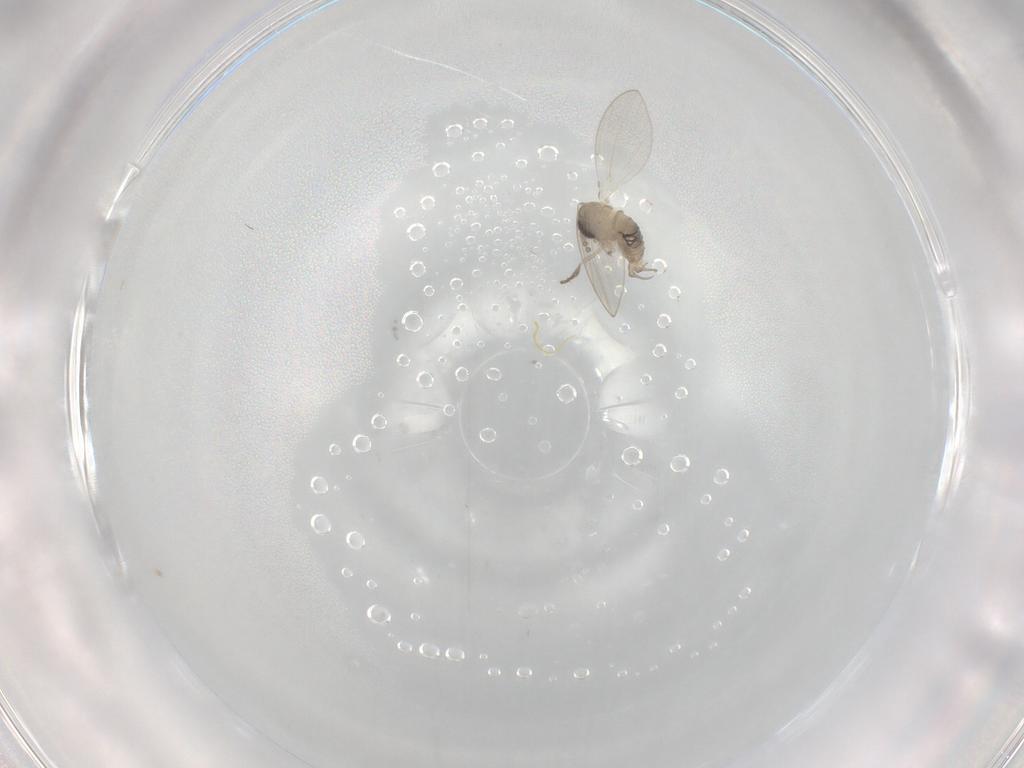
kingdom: Animalia
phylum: Arthropoda
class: Insecta
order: Diptera
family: Psychodidae
